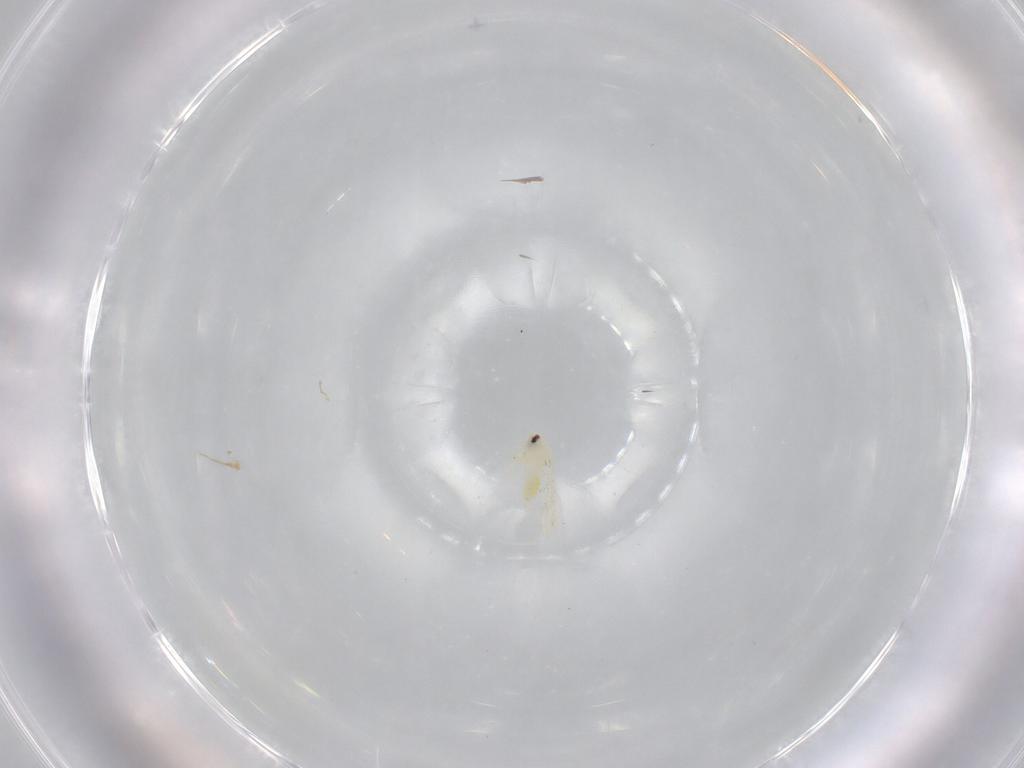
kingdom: Animalia
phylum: Arthropoda
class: Insecta
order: Hemiptera
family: Aleyrodidae
